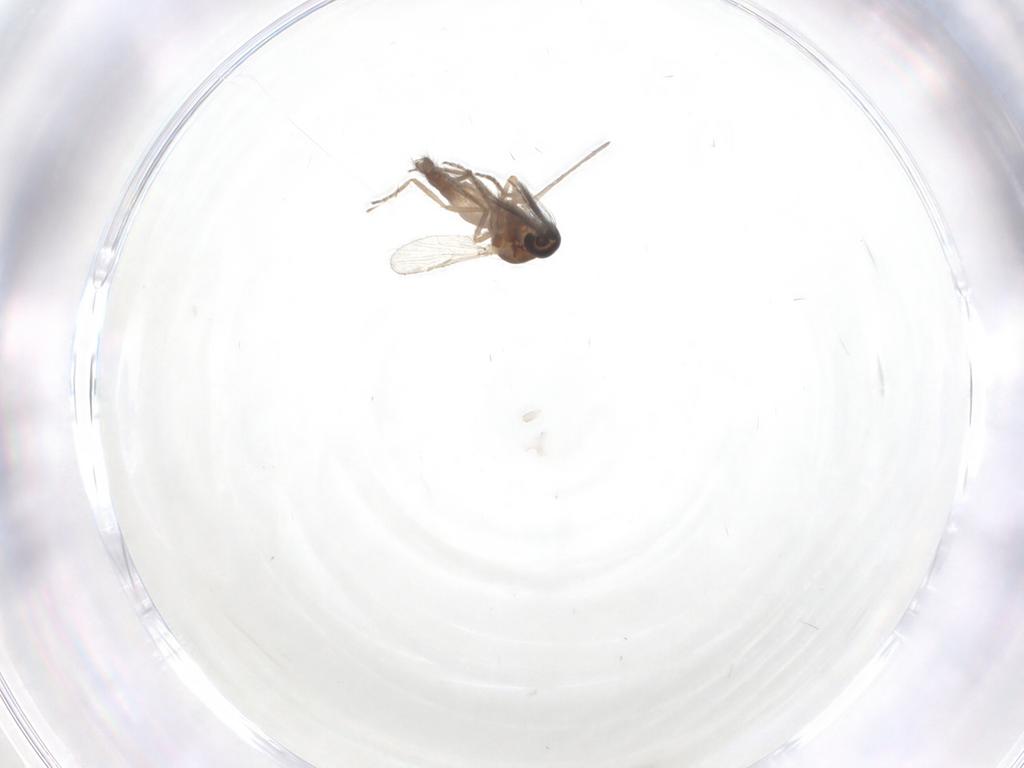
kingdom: Animalia
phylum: Arthropoda
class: Insecta
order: Diptera
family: Ceratopogonidae
